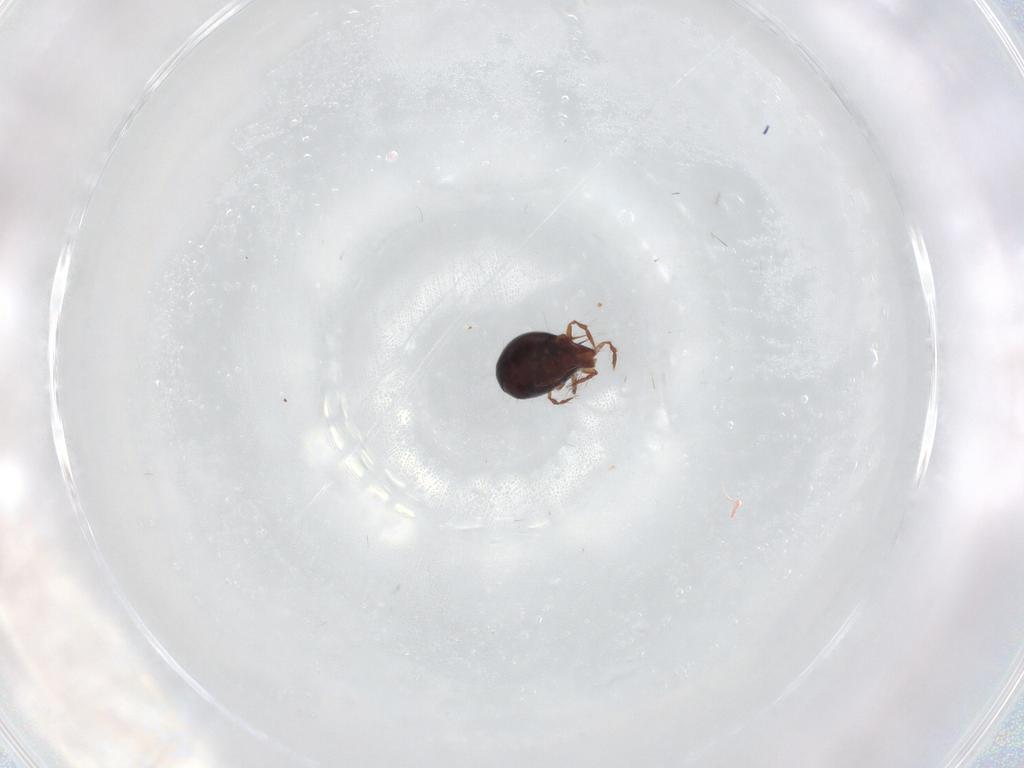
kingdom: Animalia
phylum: Arthropoda
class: Arachnida
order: Sarcoptiformes
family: Ceratoppiidae
